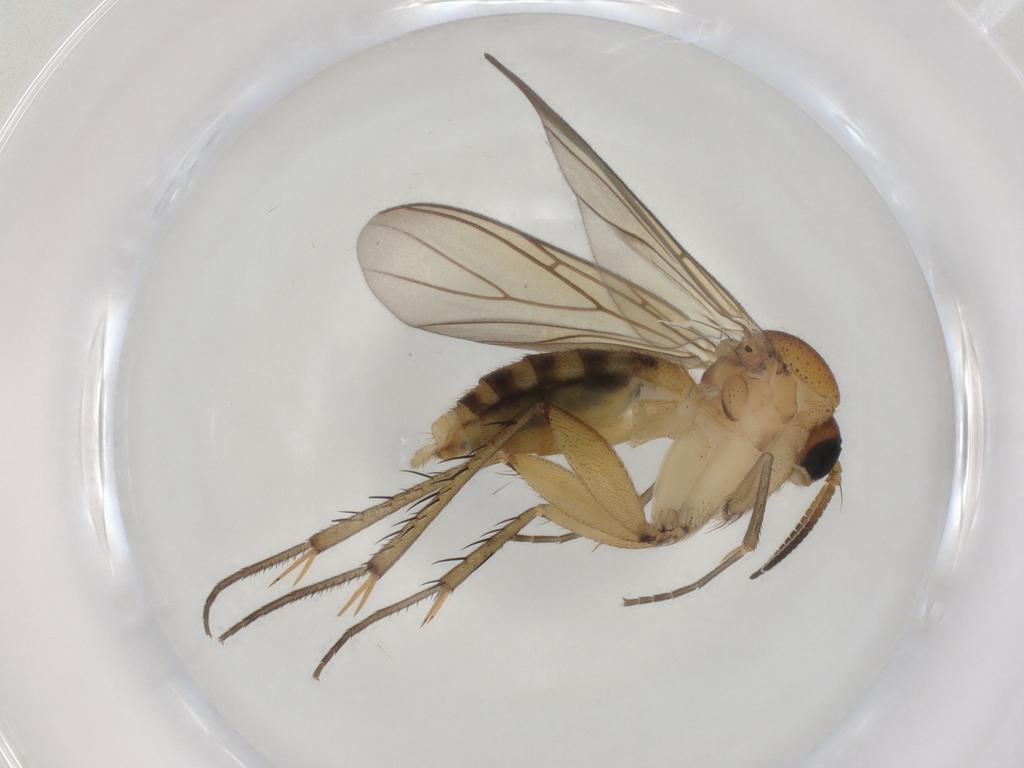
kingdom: Animalia
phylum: Arthropoda
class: Insecta
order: Diptera
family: Mycetophilidae
